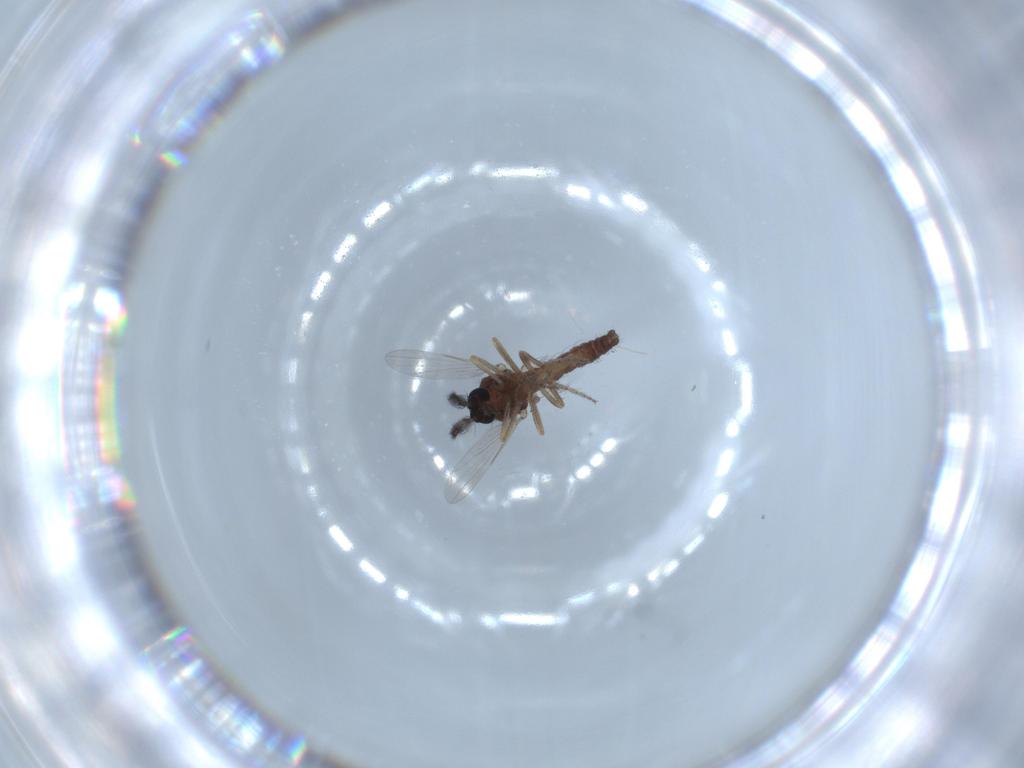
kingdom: Animalia
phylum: Arthropoda
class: Insecta
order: Diptera
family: Ceratopogonidae
